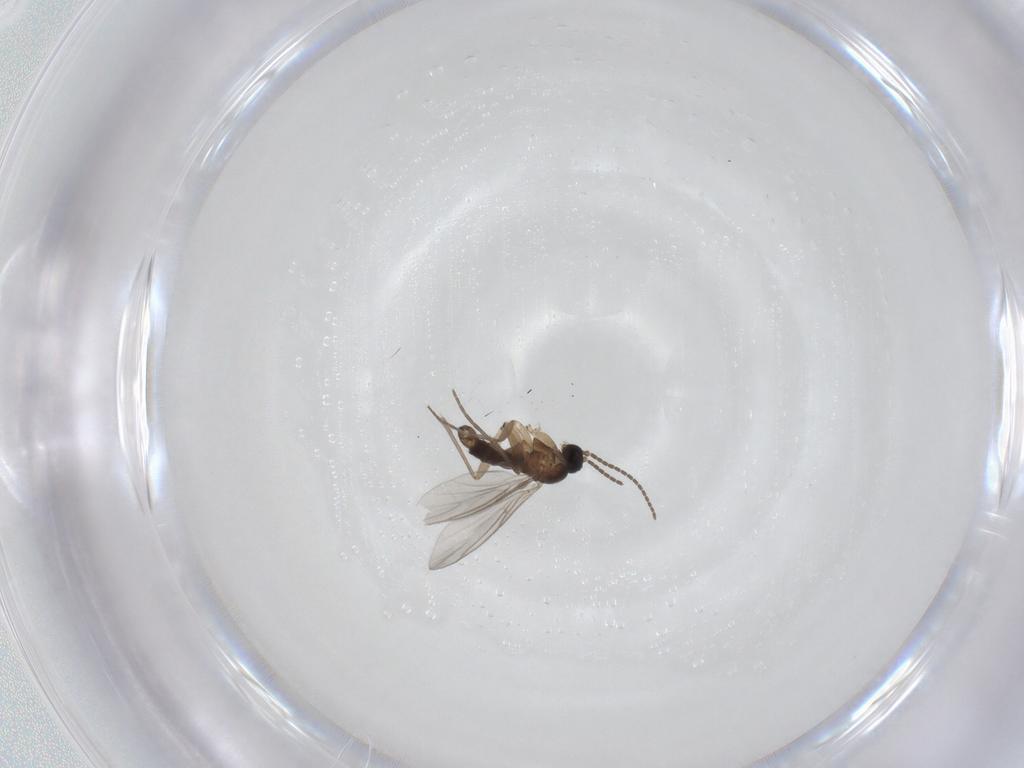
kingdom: Animalia
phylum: Arthropoda
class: Insecta
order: Diptera
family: Sciaridae
